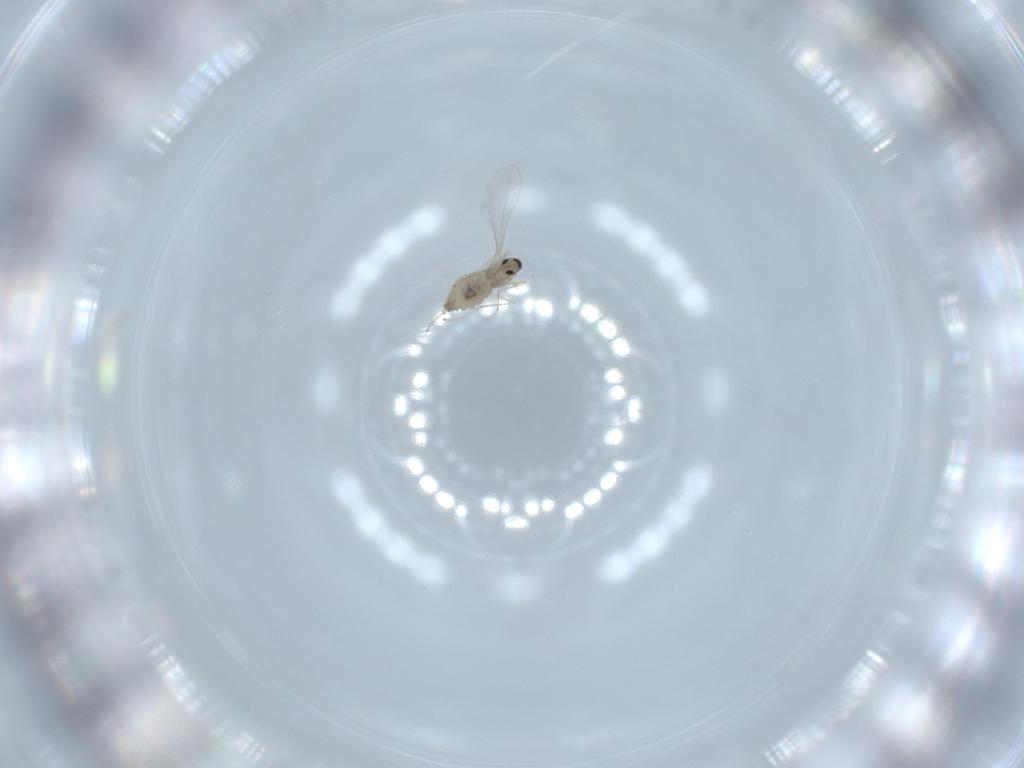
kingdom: Animalia
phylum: Arthropoda
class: Insecta
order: Diptera
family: Cecidomyiidae
